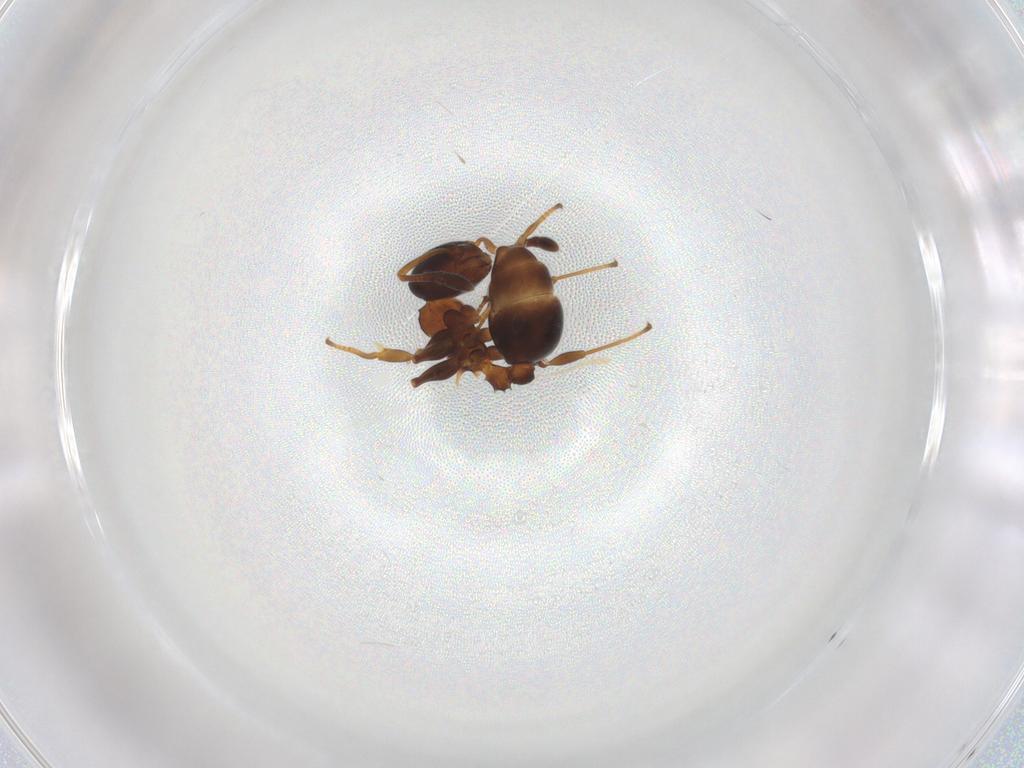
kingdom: Animalia
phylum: Arthropoda
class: Insecta
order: Hymenoptera
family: Formicidae
